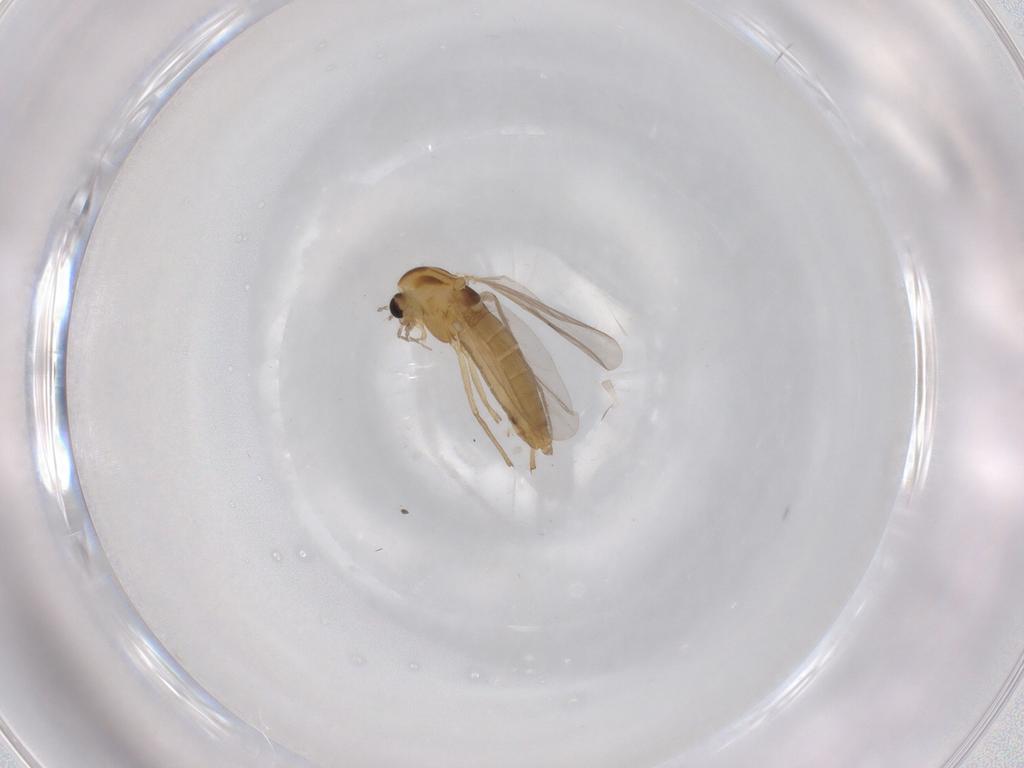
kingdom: Animalia
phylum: Arthropoda
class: Insecta
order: Diptera
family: Chironomidae
